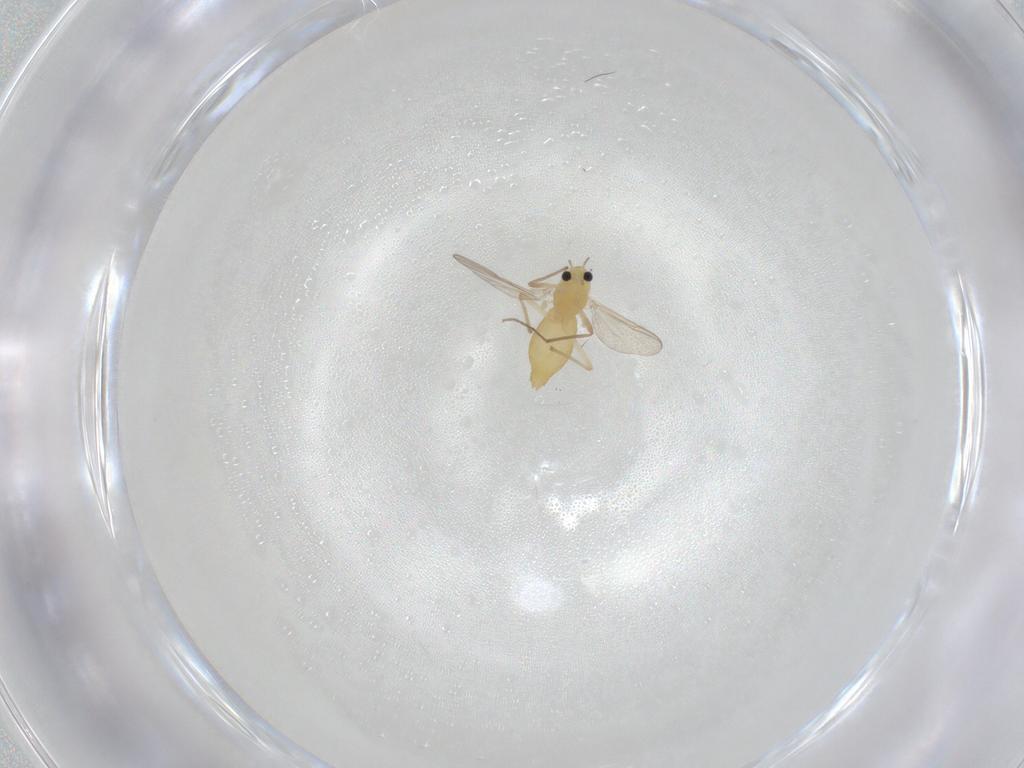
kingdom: Animalia
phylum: Arthropoda
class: Insecta
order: Diptera
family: Chironomidae
